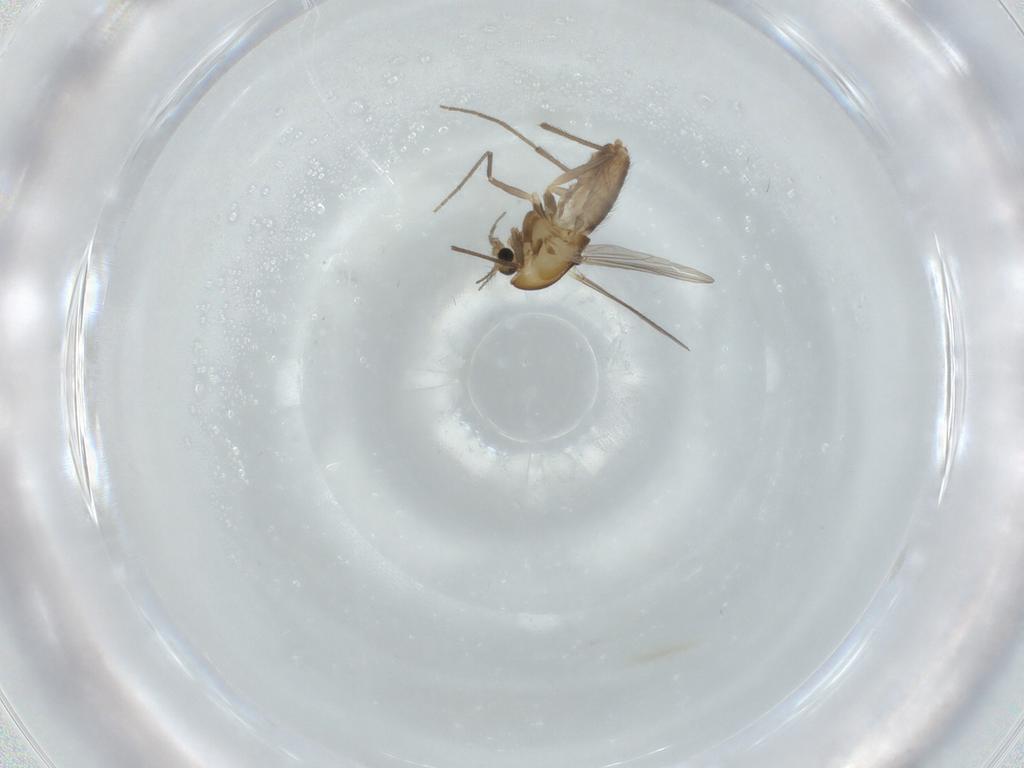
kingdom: Animalia
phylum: Arthropoda
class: Insecta
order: Diptera
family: Chironomidae
